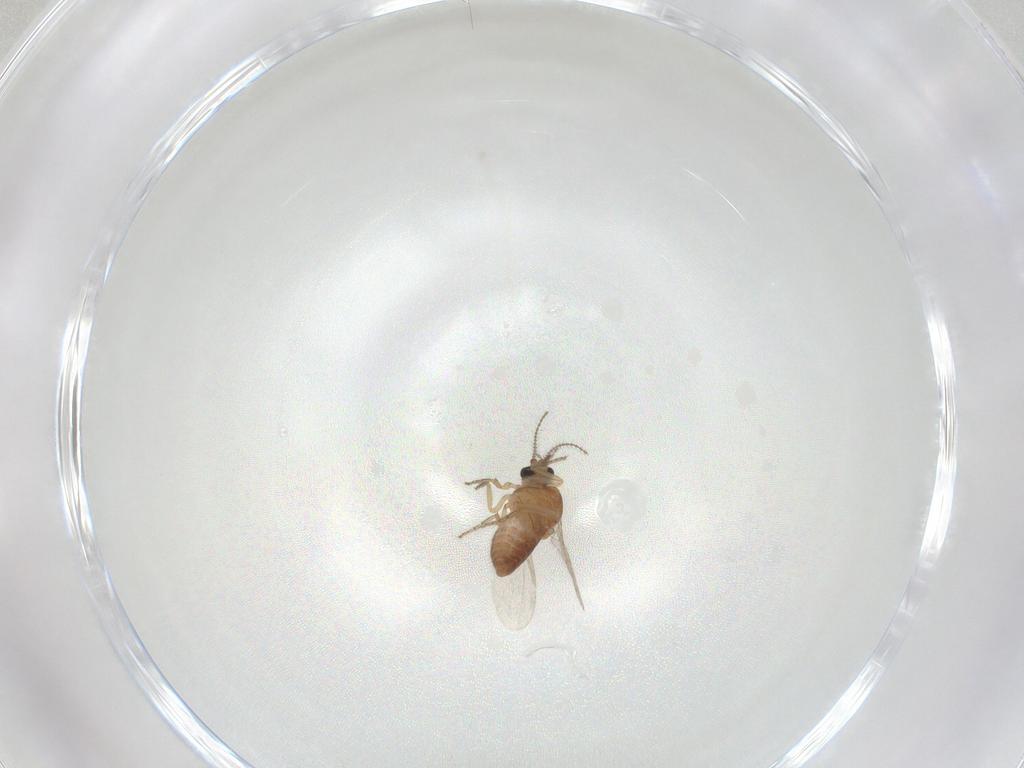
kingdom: Animalia
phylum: Arthropoda
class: Insecta
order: Diptera
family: Ceratopogonidae
